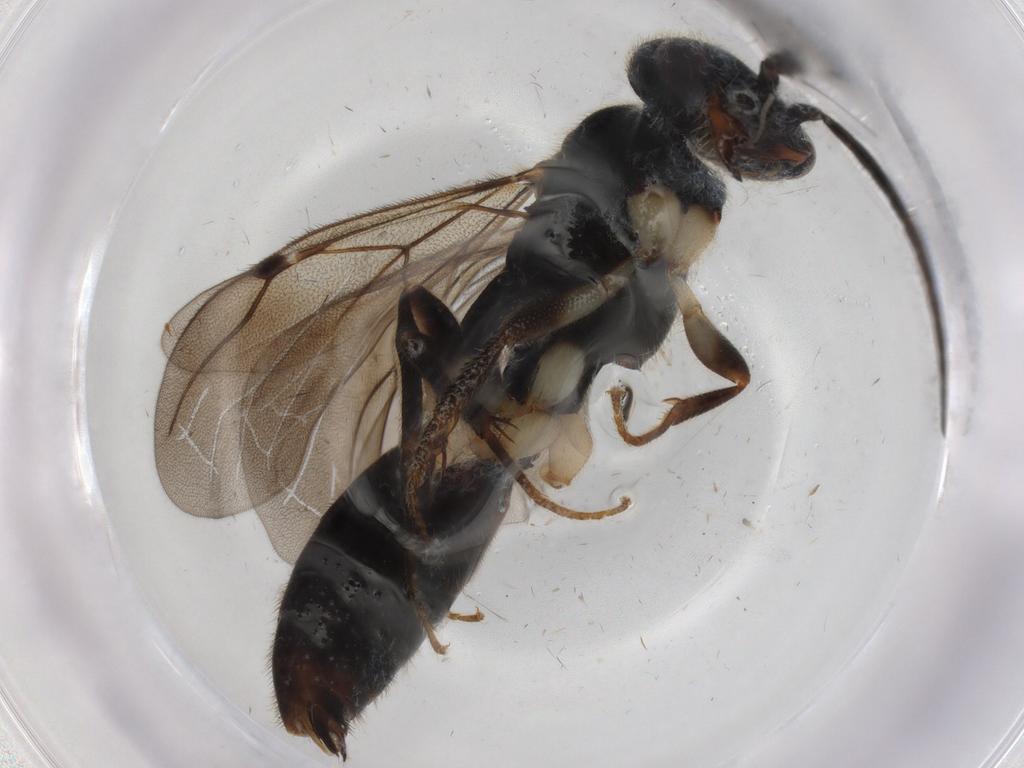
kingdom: Animalia
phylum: Arthropoda
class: Insecta
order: Hymenoptera
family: Bethylidae
